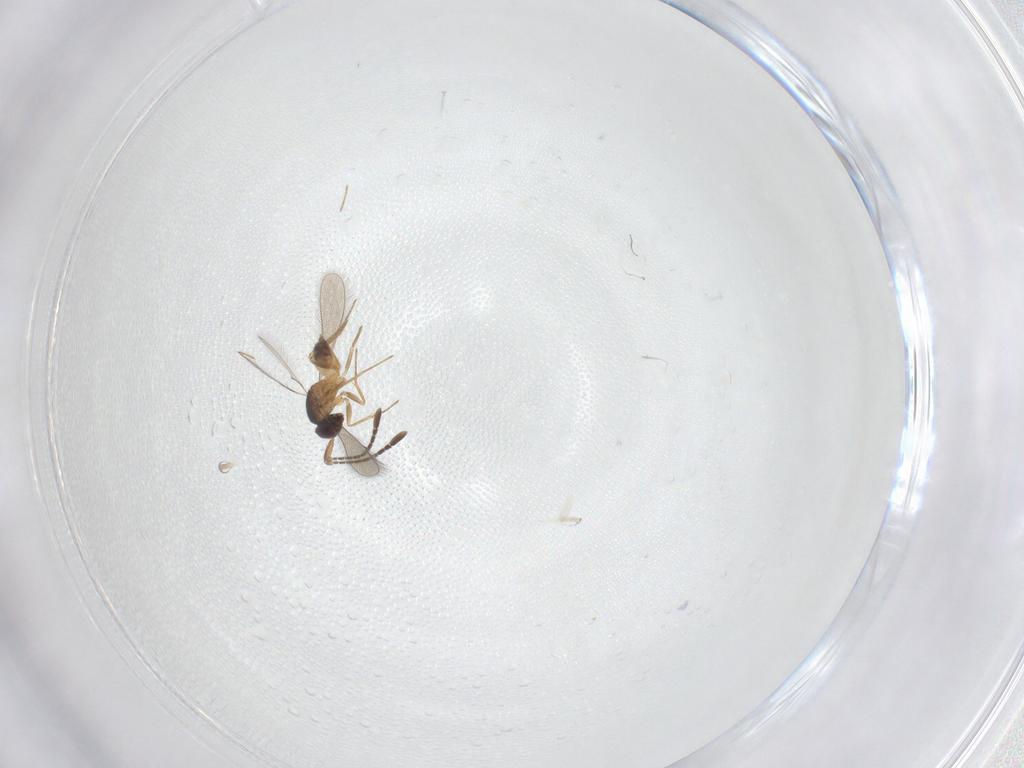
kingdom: Animalia
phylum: Arthropoda
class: Insecta
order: Hymenoptera
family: Mymaridae
